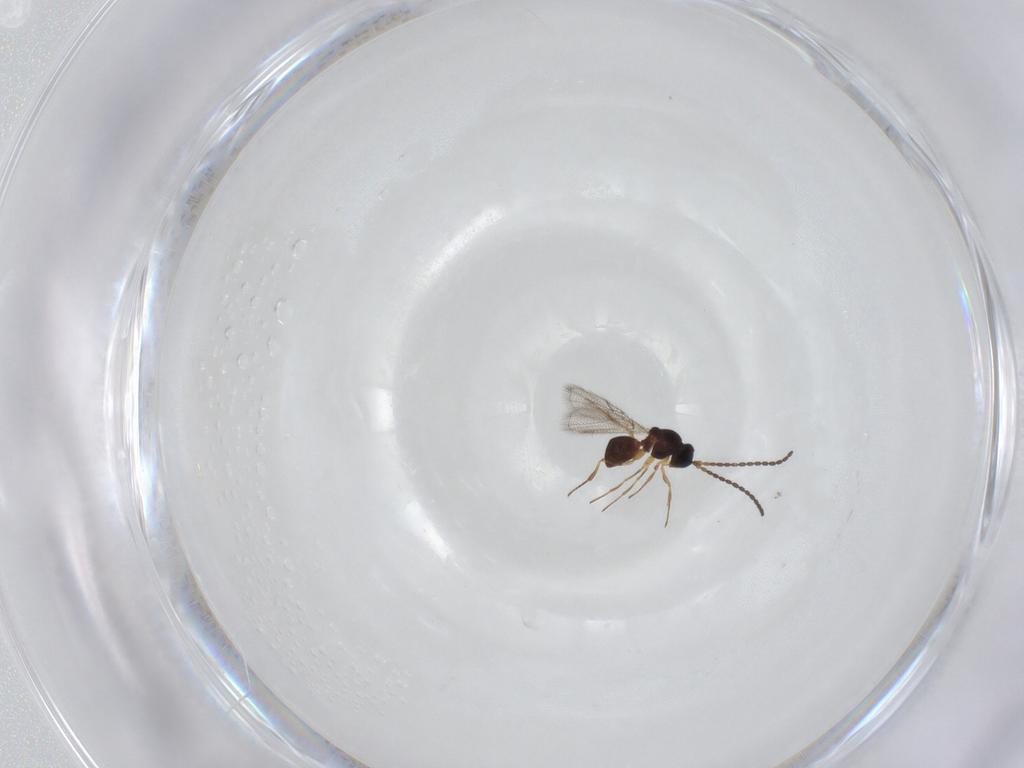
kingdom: Animalia
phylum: Arthropoda
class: Insecta
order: Hymenoptera
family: Figitidae
